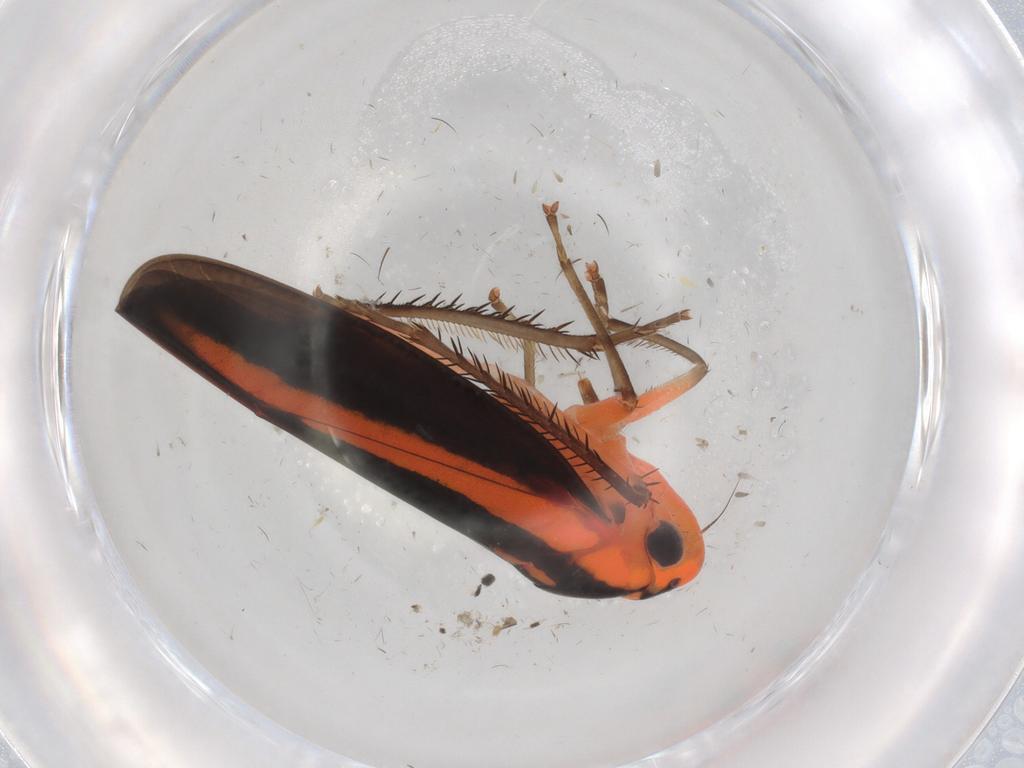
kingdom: Animalia
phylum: Arthropoda
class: Insecta
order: Hemiptera
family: Cicadellidae
